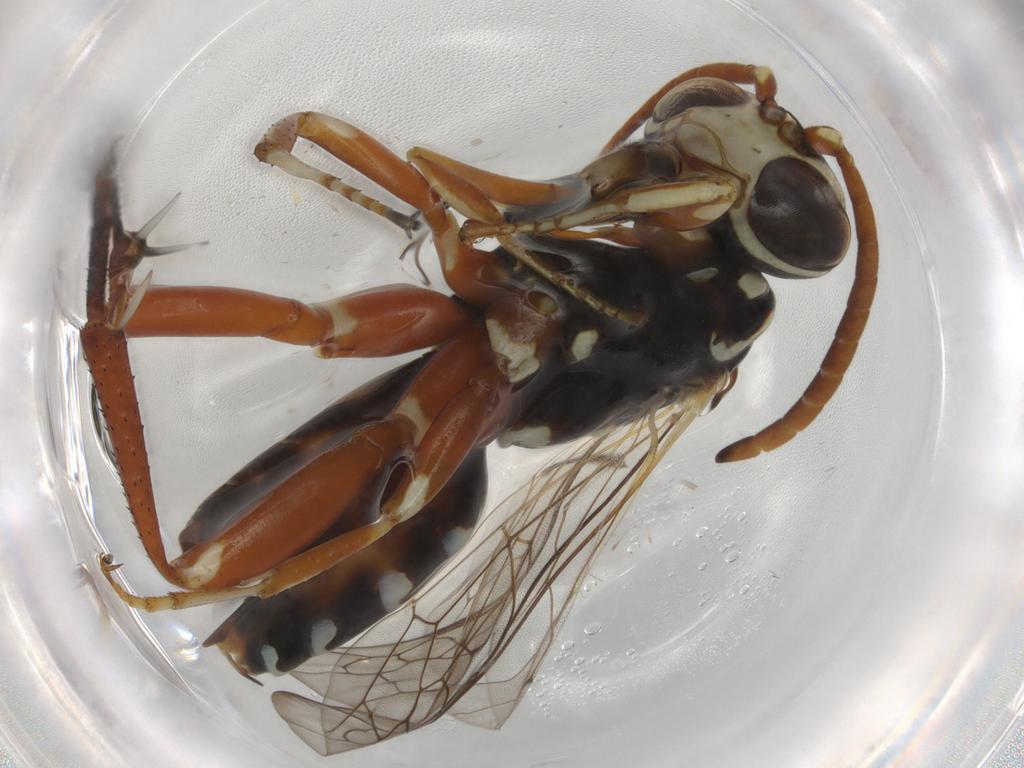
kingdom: Animalia
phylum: Arthropoda
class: Insecta
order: Hymenoptera
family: Vespidae
